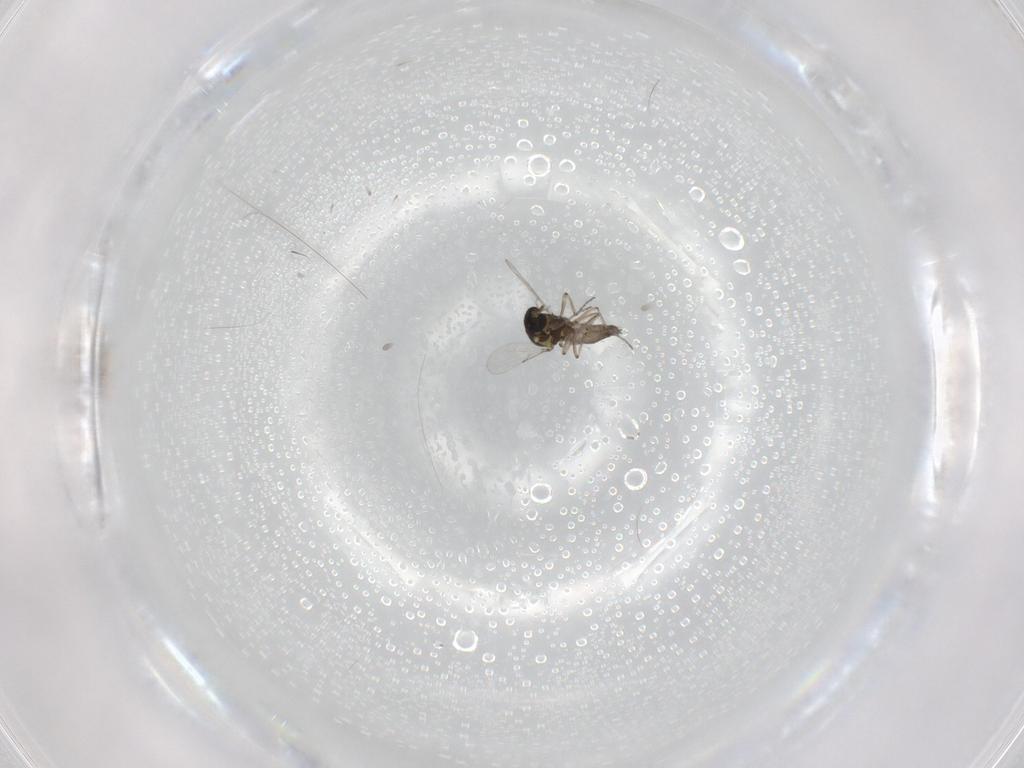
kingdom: Animalia
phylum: Arthropoda
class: Insecta
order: Diptera
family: Ceratopogonidae
